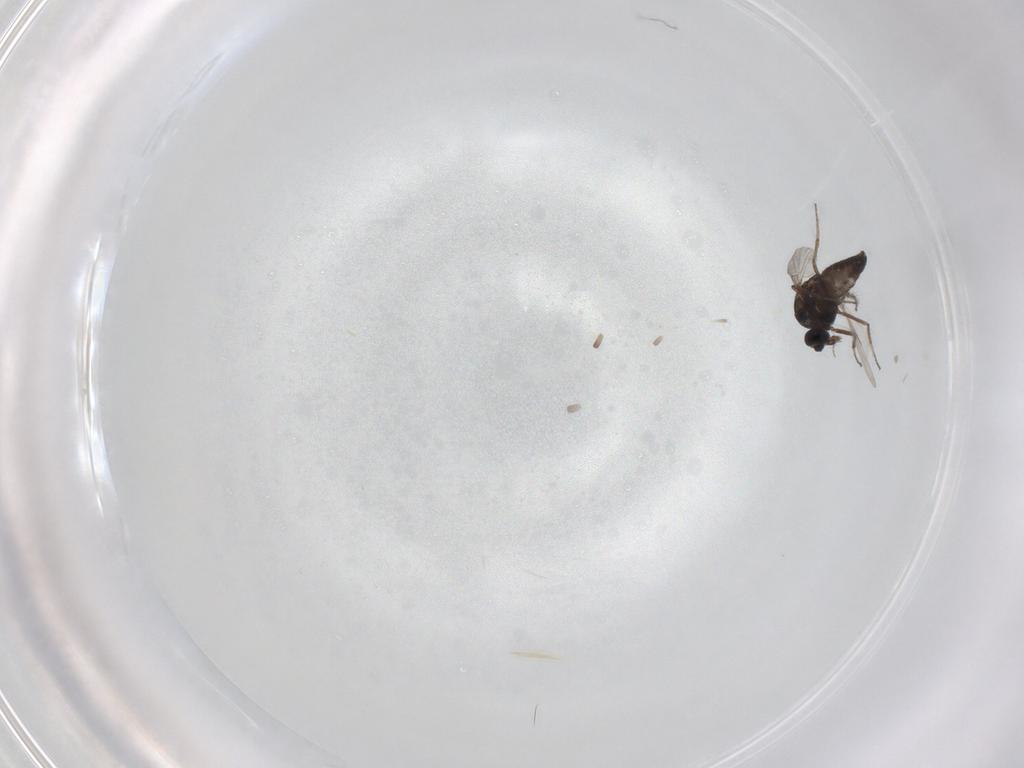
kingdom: Animalia
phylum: Arthropoda
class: Insecta
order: Diptera
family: Ceratopogonidae
